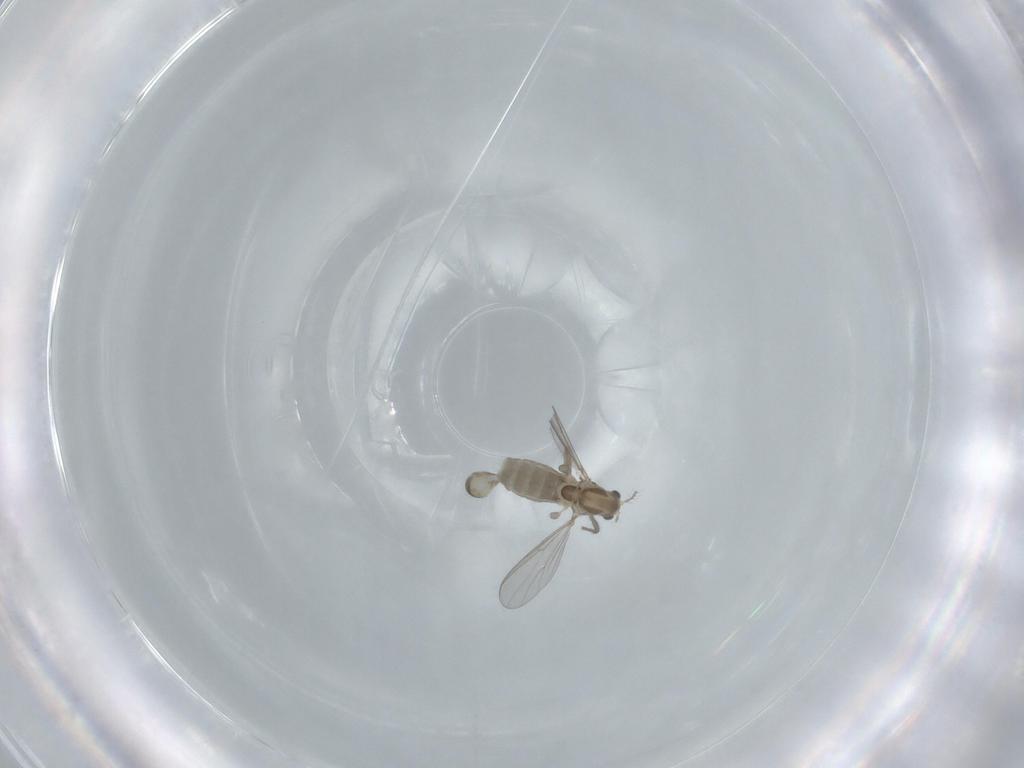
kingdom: Animalia
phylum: Arthropoda
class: Insecta
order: Diptera
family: Chironomidae
